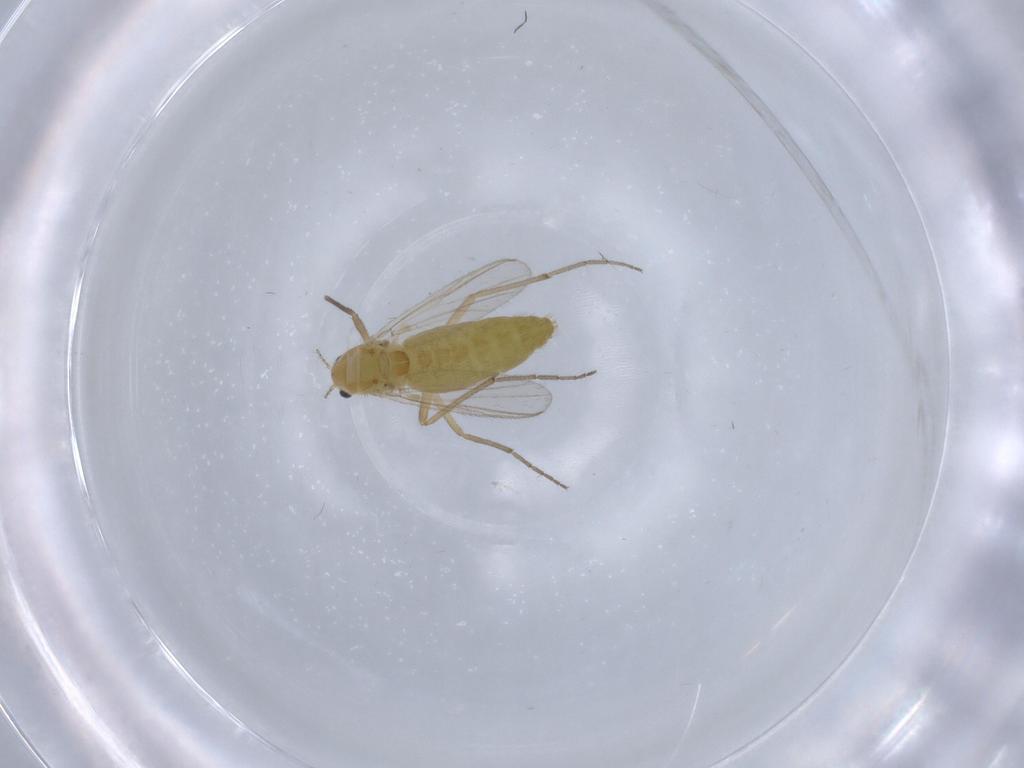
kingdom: Animalia
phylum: Arthropoda
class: Insecta
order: Diptera
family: Chironomidae
